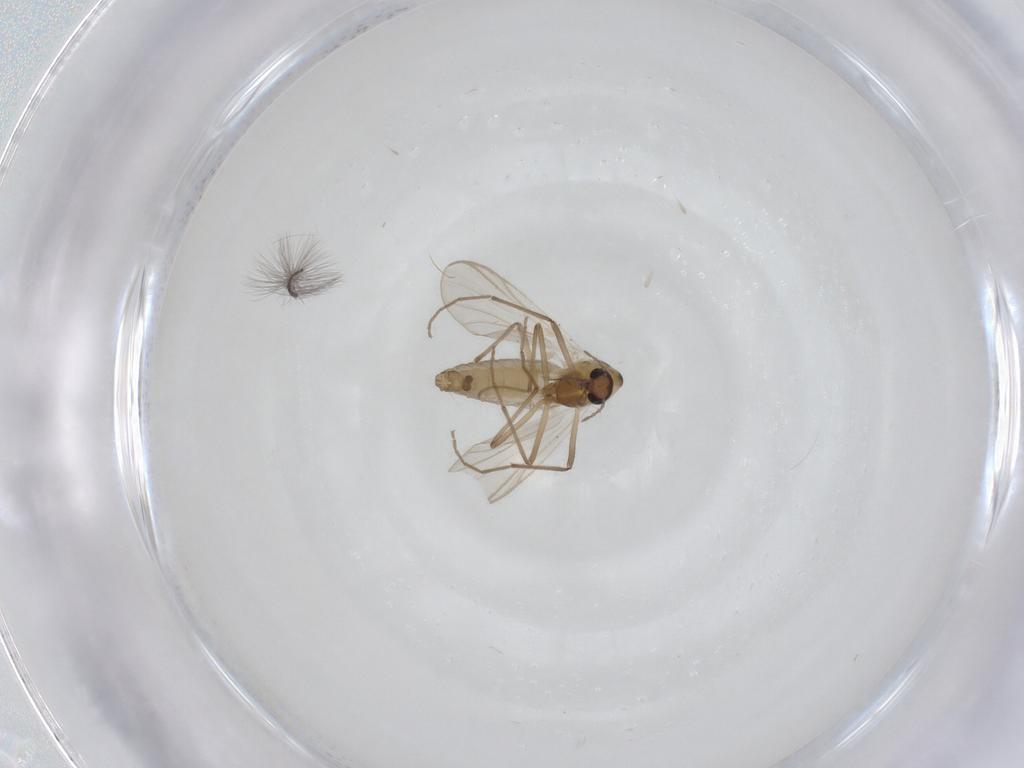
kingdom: Animalia
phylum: Arthropoda
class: Insecta
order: Diptera
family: Chironomidae
